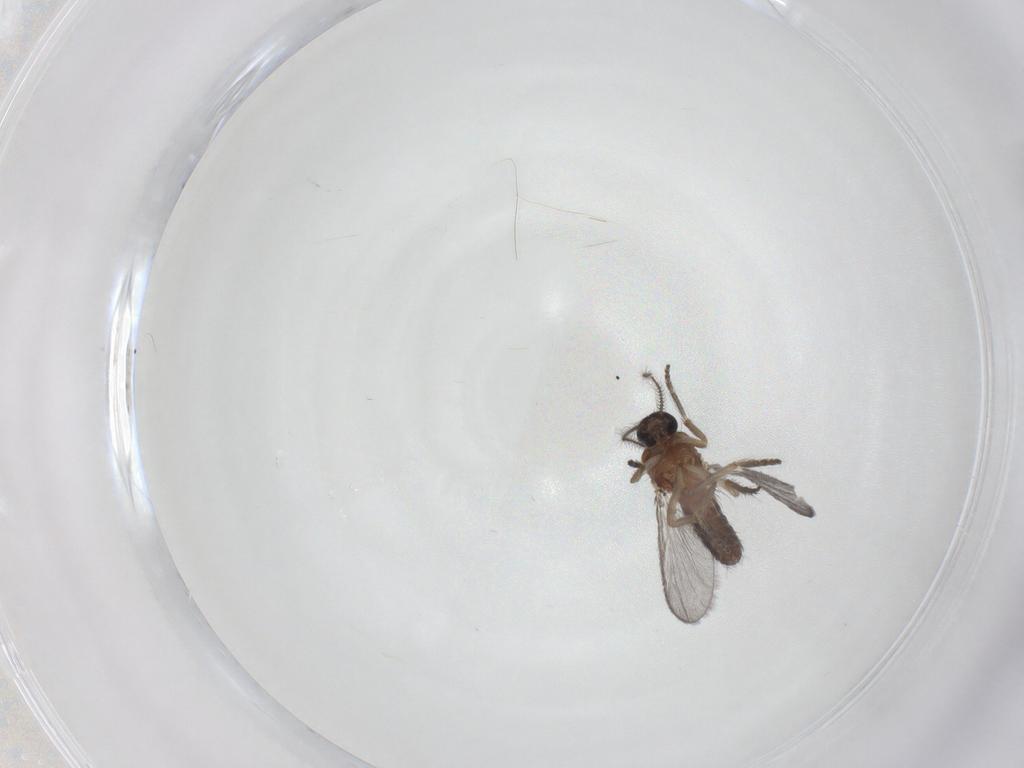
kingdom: Animalia
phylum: Arthropoda
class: Insecta
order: Diptera
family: Ceratopogonidae
